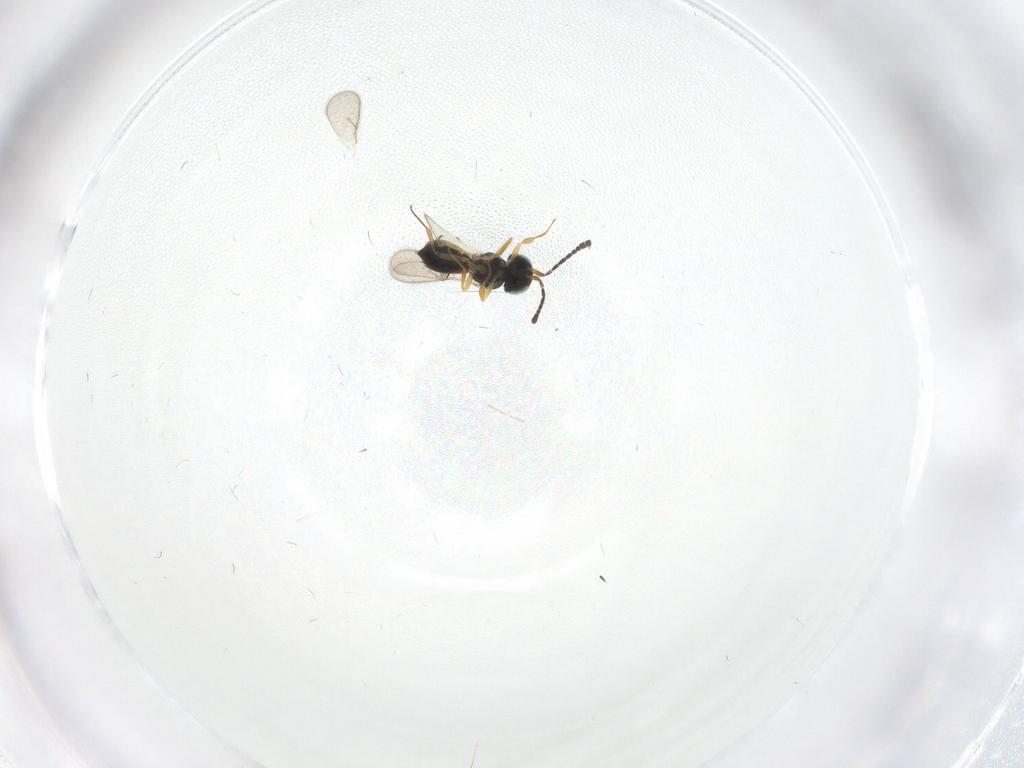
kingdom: Animalia
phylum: Arthropoda
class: Insecta
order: Hymenoptera
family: Scelionidae
